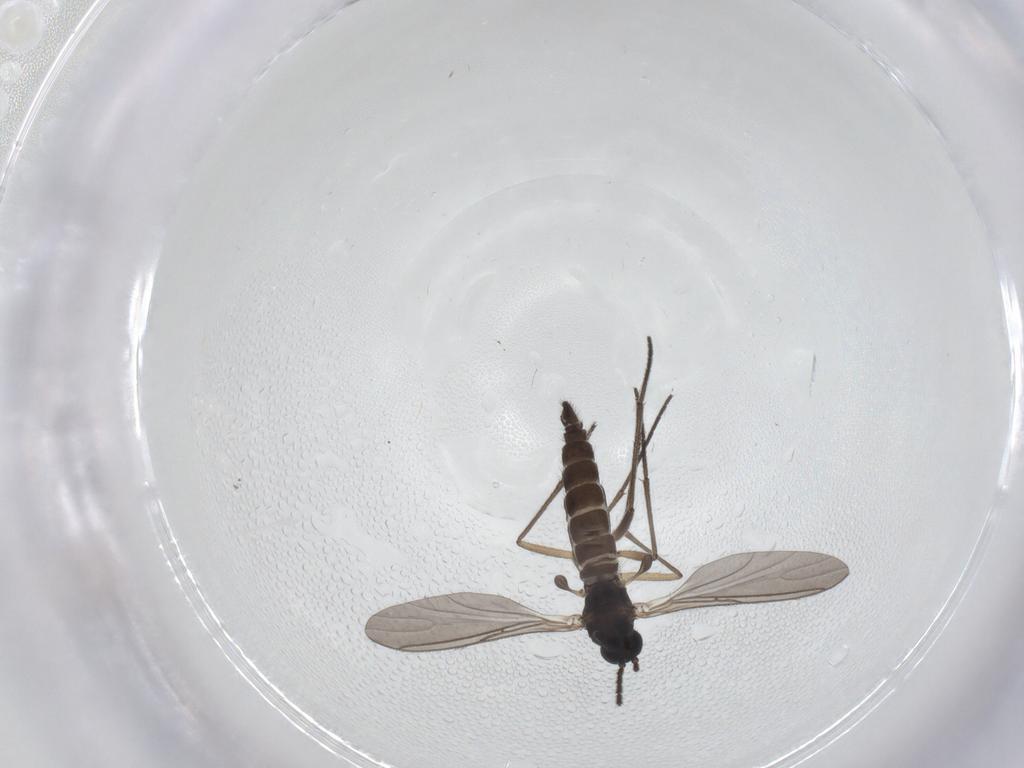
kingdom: Animalia
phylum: Arthropoda
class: Insecta
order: Diptera
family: Sciaridae
